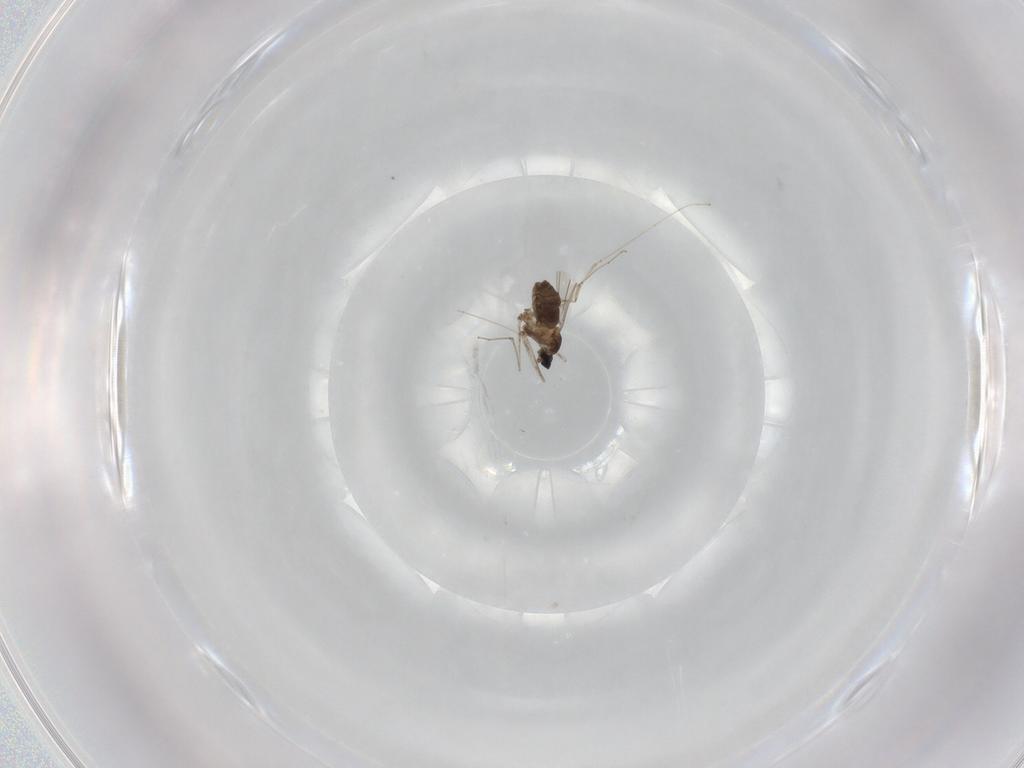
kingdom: Animalia
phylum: Arthropoda
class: Insecta
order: Diptera
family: Cecidomyiidae
